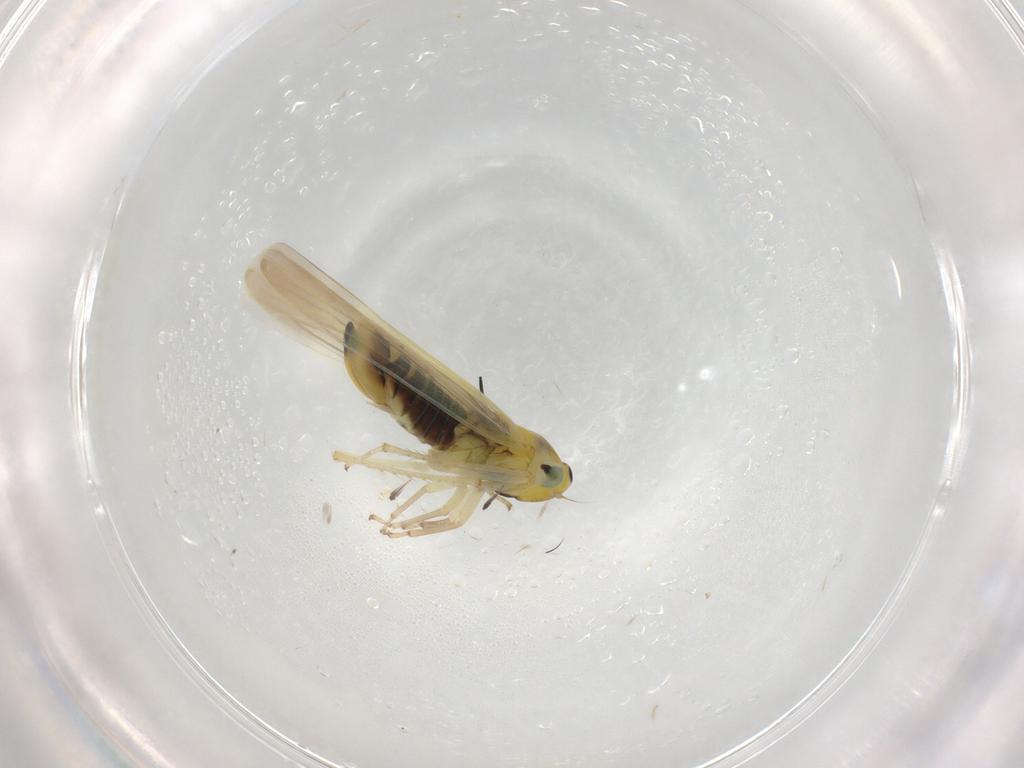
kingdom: Animalia
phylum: Arthropoda
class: Insecta
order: Hemiptera
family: Cicadellidae
